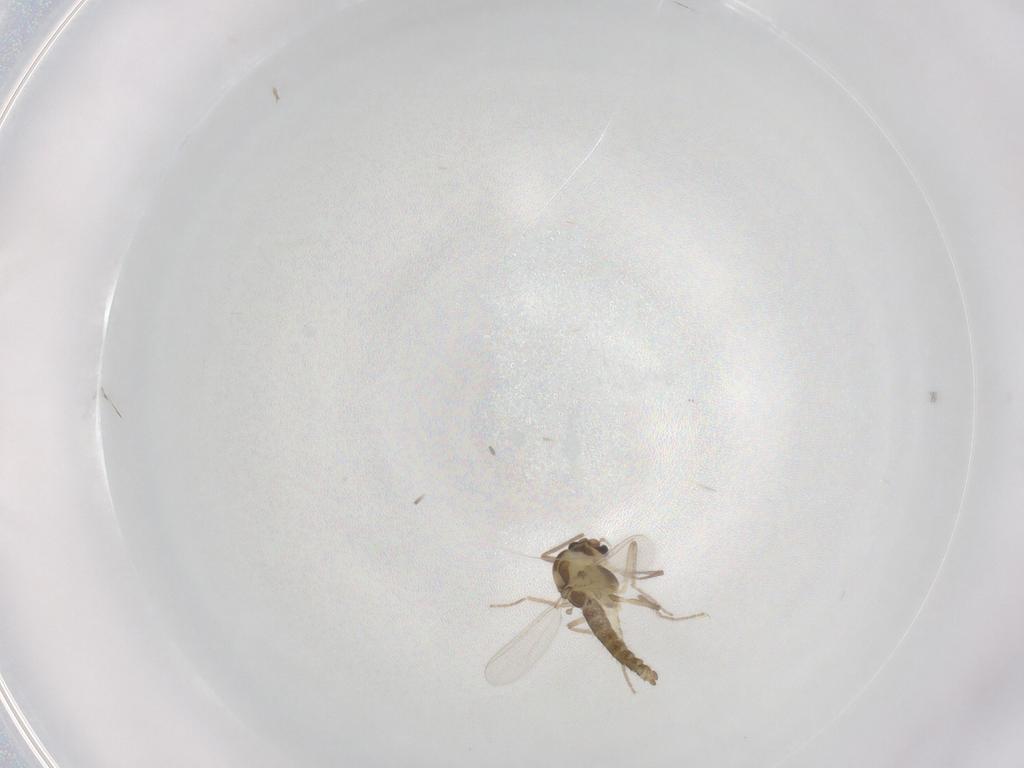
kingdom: Animalia
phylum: Arthropoda
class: Insecta
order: Diptera
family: Chironomidae
